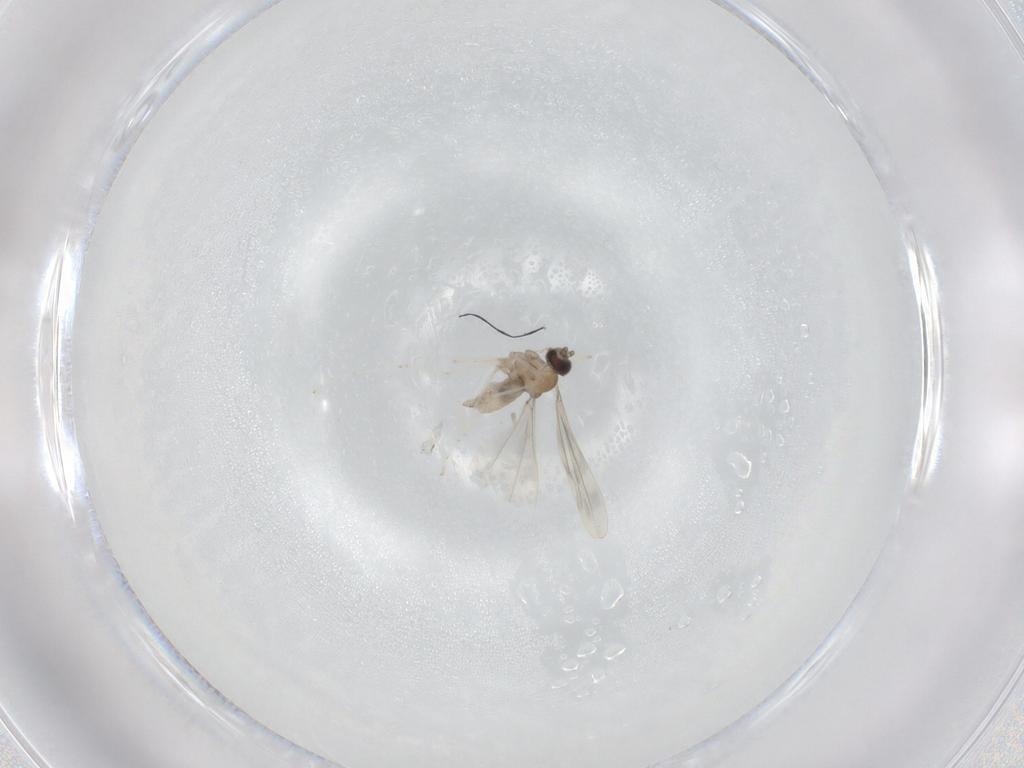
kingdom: Animalia
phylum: Arthropoda
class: Insecta
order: Diptera
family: Cecidomyiidae
